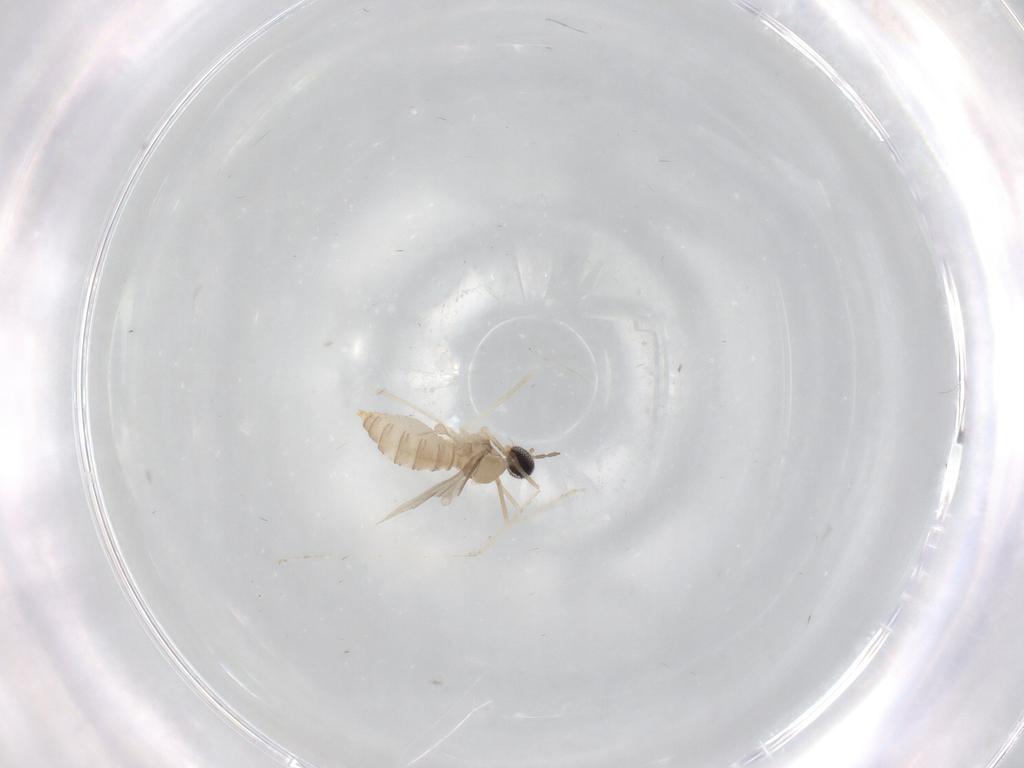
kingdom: Animalia
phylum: Arthropoda
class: Insecta
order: Diptera
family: Cecidomyiidae
